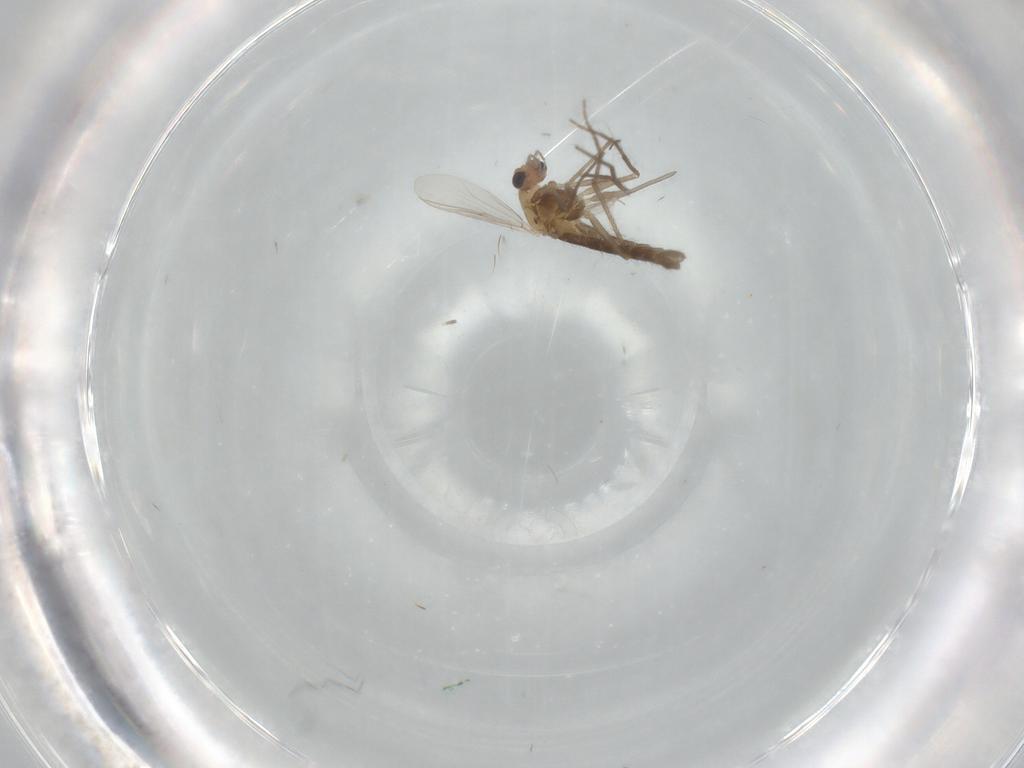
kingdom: Animalia
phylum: Arthropoda
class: Insecta
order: Diptera
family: Chironomidae
